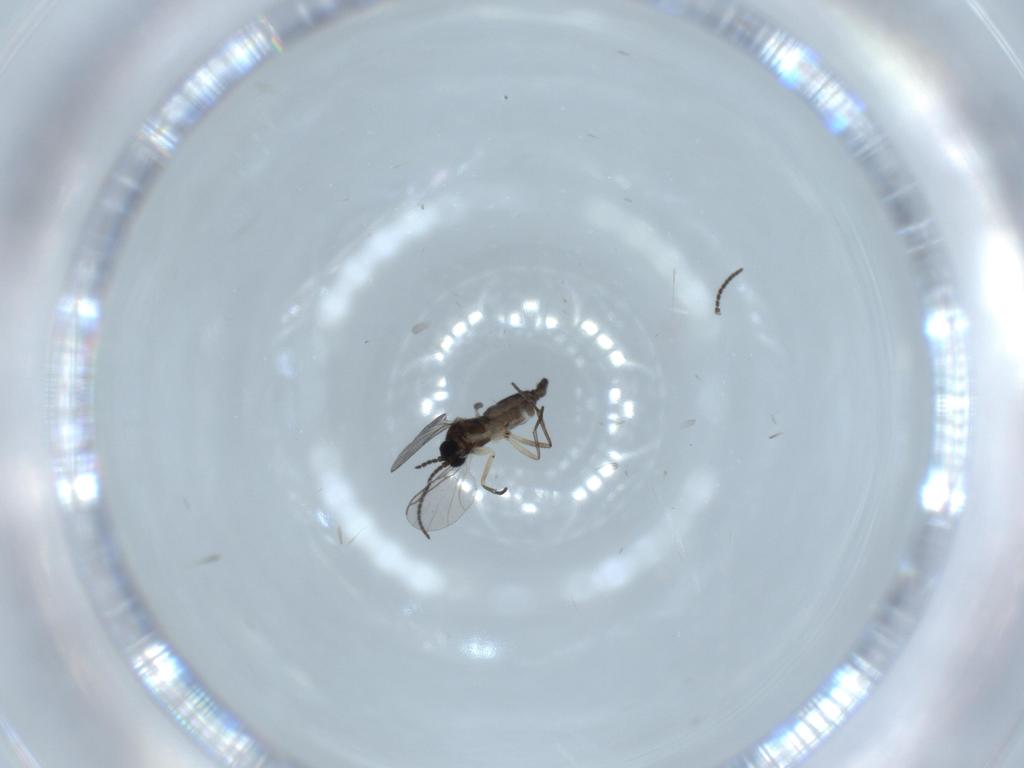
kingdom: Animalia
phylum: Arthropoda
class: Insecta
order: Diptera
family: Sciaridae
